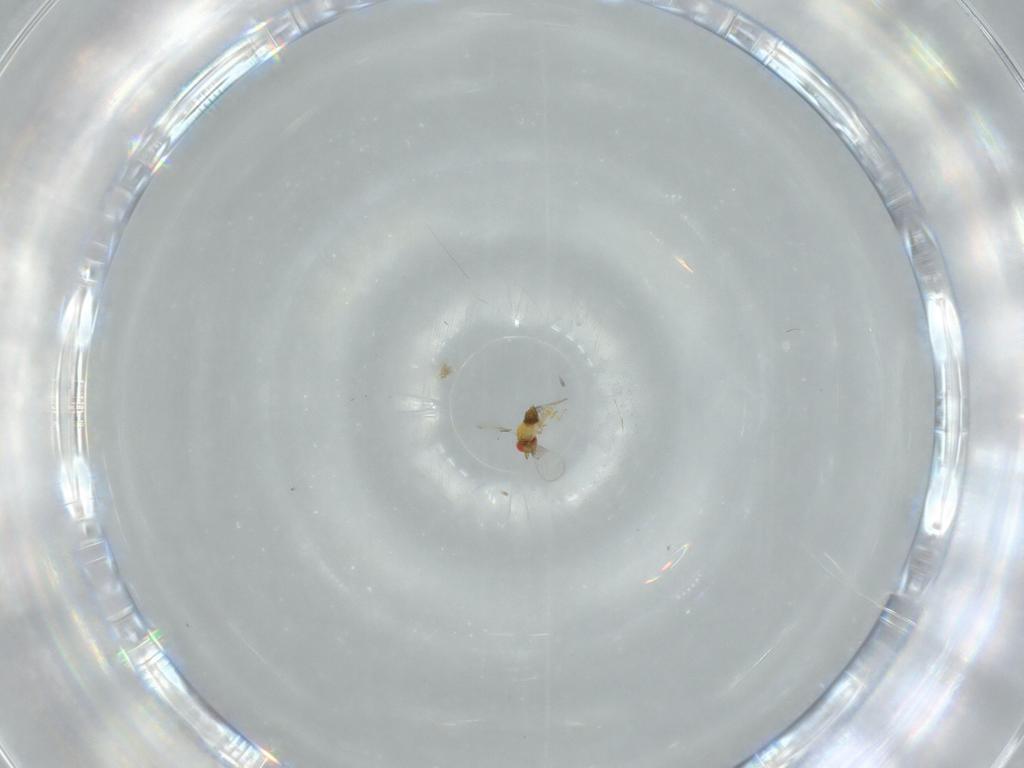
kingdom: Animalia
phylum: Arthropoda
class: Insecta
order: Hymenoptera
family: Trichogrammatidae
